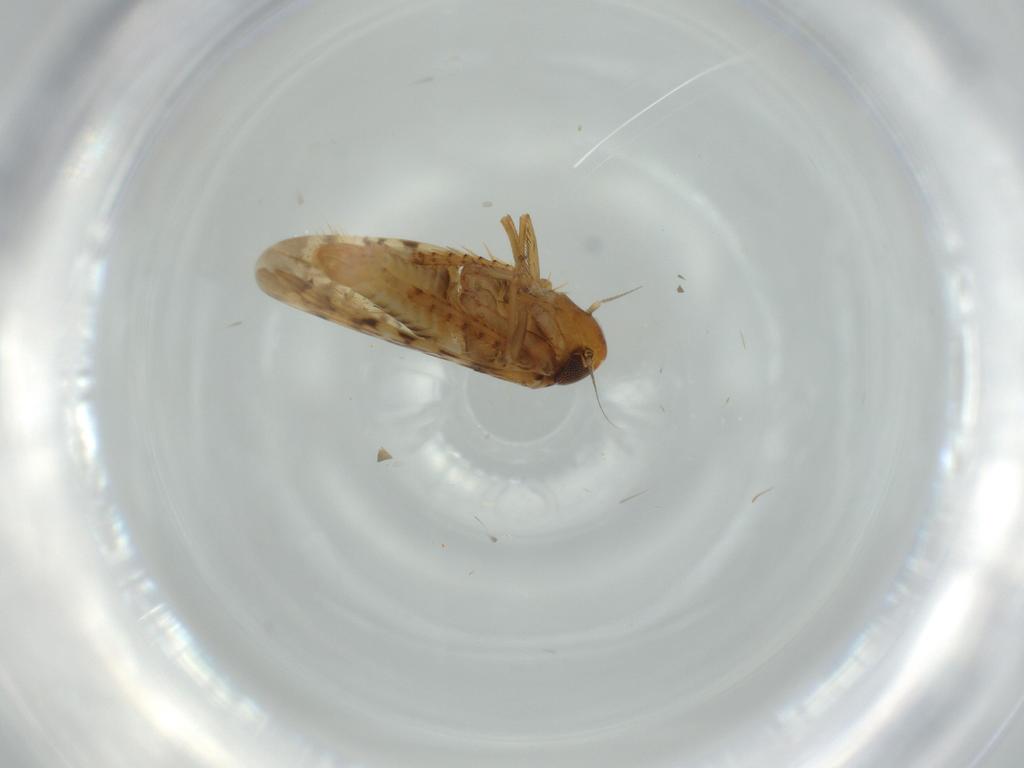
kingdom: Animalia
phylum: Arthropoda
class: Insecta
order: Hemiptera
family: Cicadellidae
